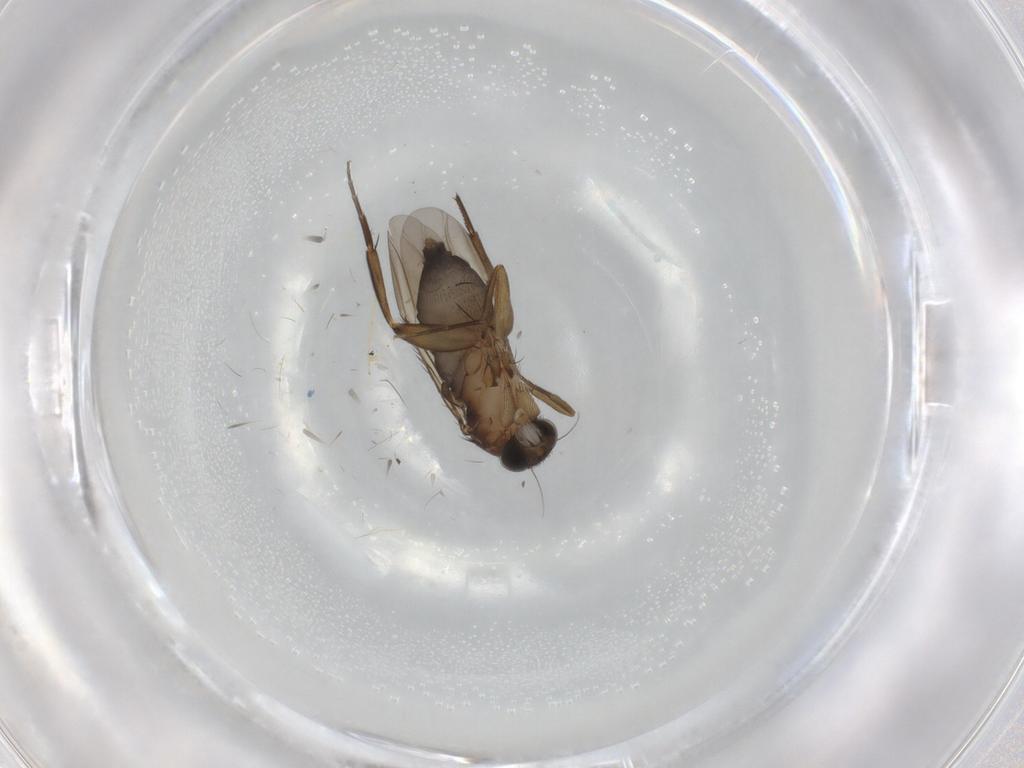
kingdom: Animalia
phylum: Arthropoda
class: Insecta
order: Diptera
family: Phoridae
